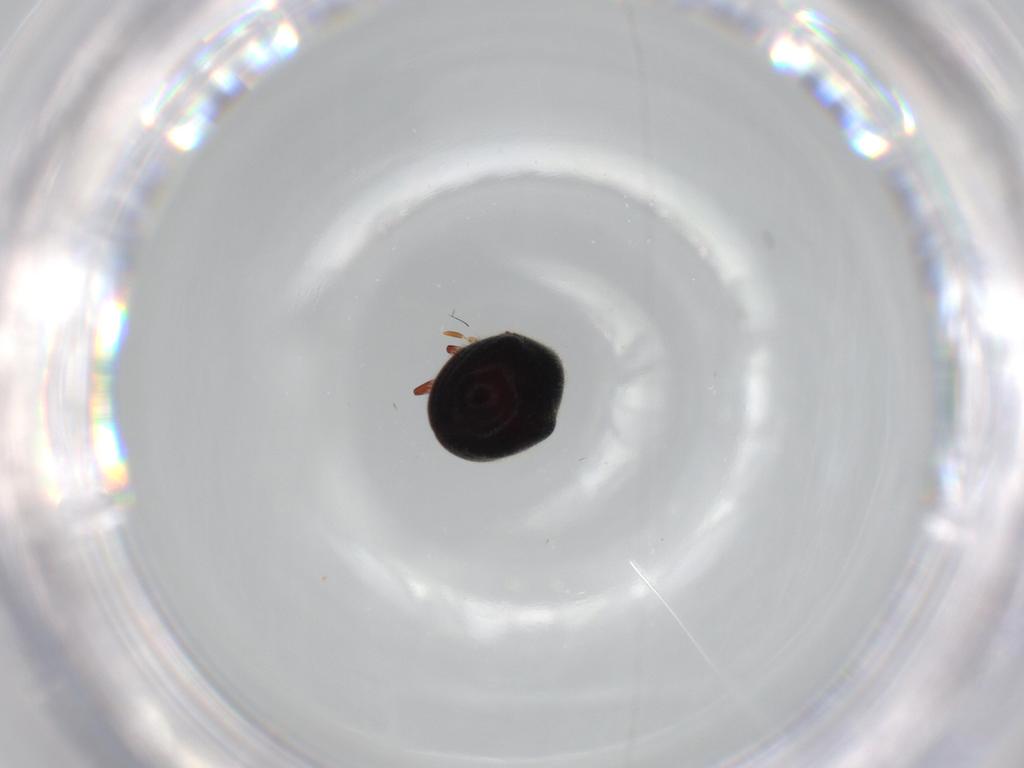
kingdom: Animalia
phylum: Arthropoda
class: Insecta
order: Coleoptera
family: Ptinidae
